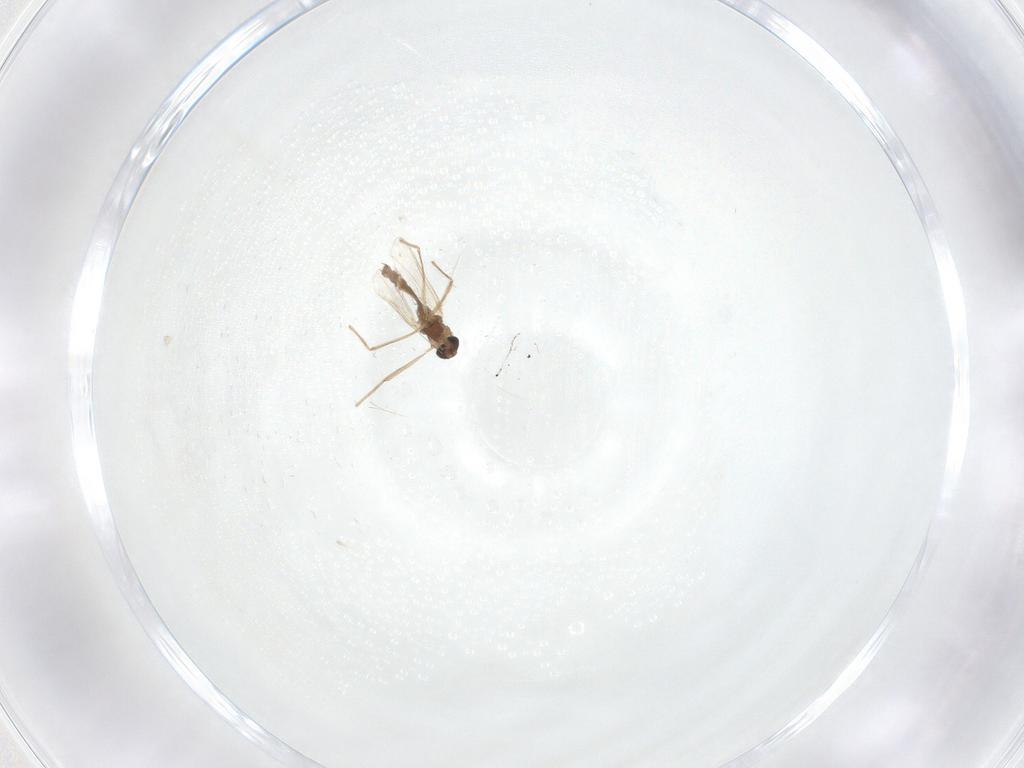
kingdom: Animalia
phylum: Arthropoda
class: Insecta
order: Diptera
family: Chironomidae
